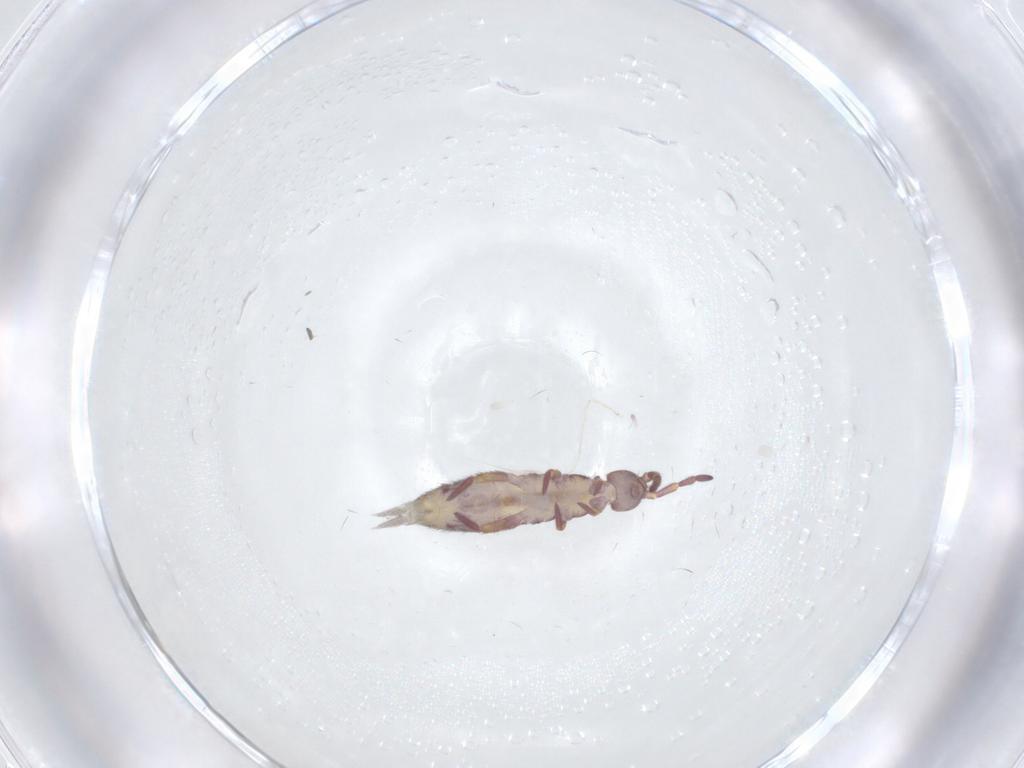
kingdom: Animalia
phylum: Arthropoda
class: Collembola
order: Entomobryomorpha
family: Isotomidae
